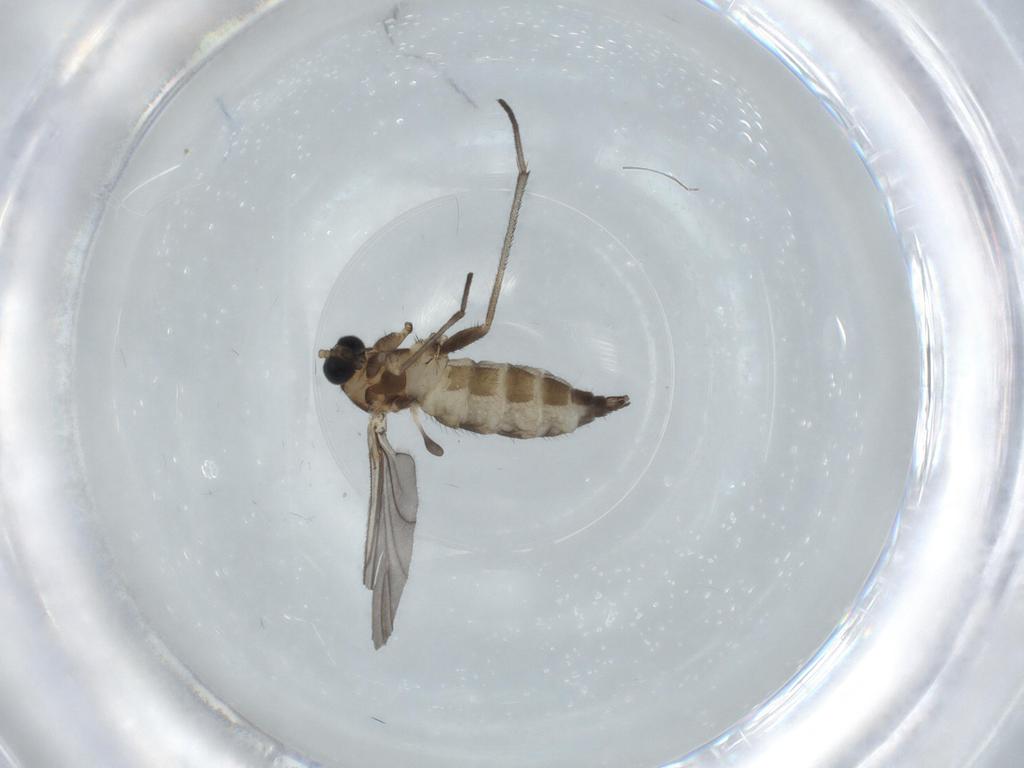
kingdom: Animalia
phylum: Arthropoda
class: Insecta
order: Diptera
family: Sciaridae
